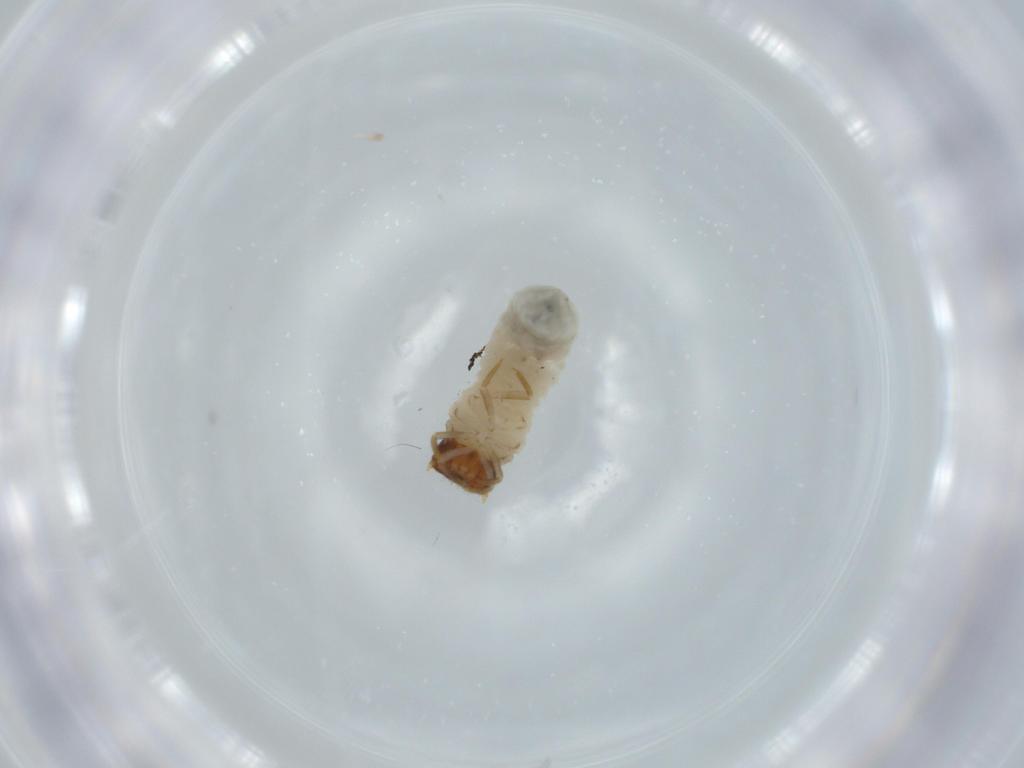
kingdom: Animalia
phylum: Arthropoda
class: Insecta
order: Coleoptera
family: Chrysomelidae
